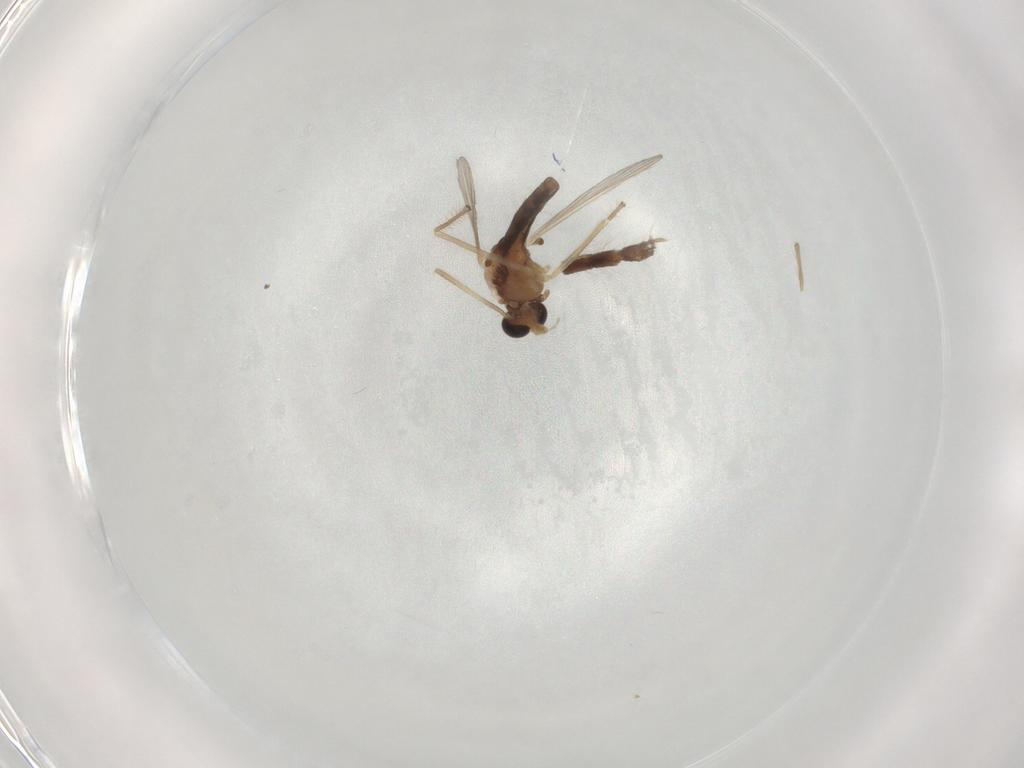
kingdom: Animalia
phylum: Arthropoda
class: Insecta
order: Diptera
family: Chironomidae
